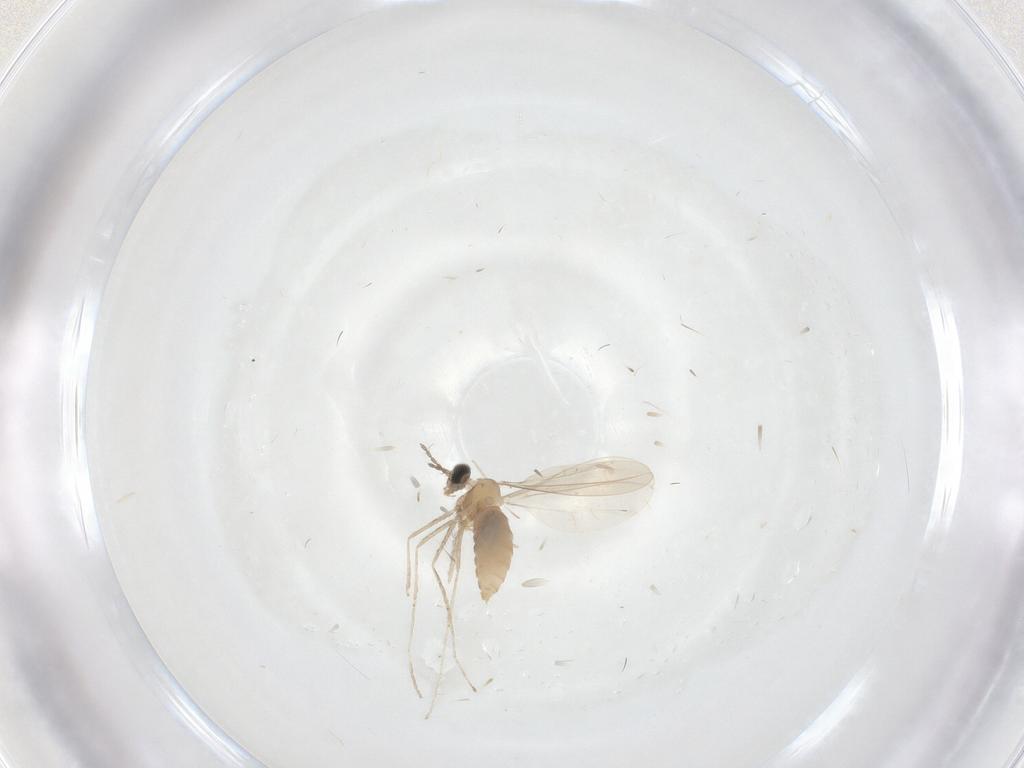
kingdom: Animalia
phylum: Arthropoda
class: Insecta
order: Diptera
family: Cecidomyiidae
